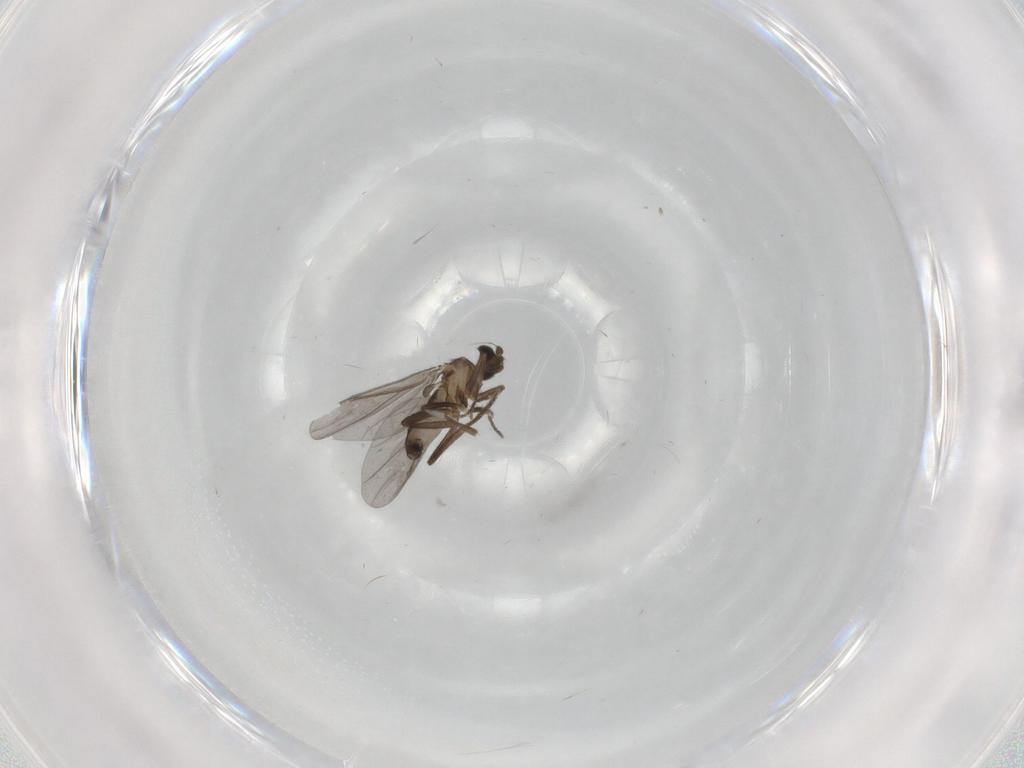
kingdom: Animalia
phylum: Arthropoda
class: Insecta
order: Diptera
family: Phoridae
